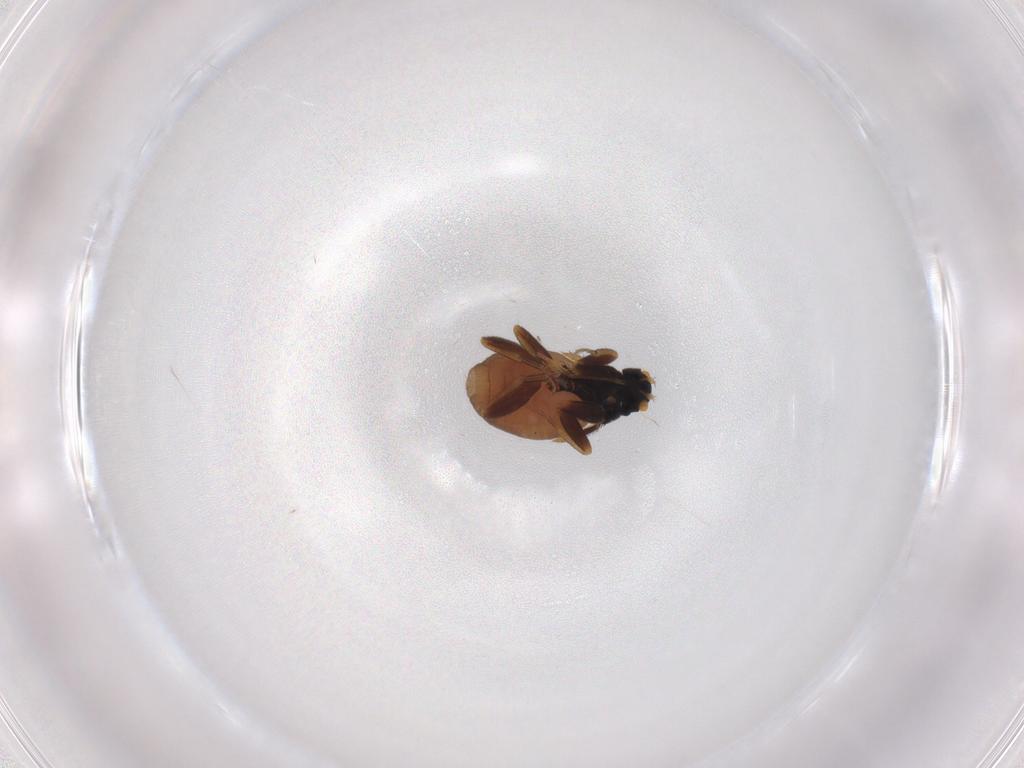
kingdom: Animalia
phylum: Arthropoda
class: Insecta
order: Diptera
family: Phoridae
